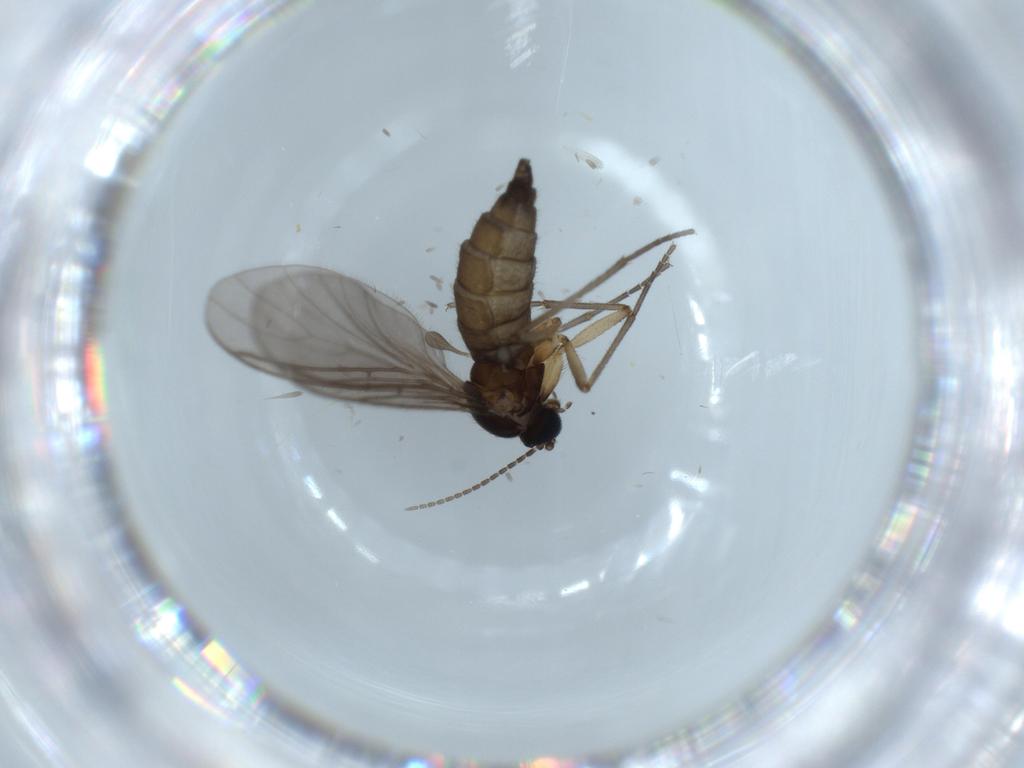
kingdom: Animalia
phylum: Arthropoda
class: Insecta
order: Diptera
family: Sciaridae
